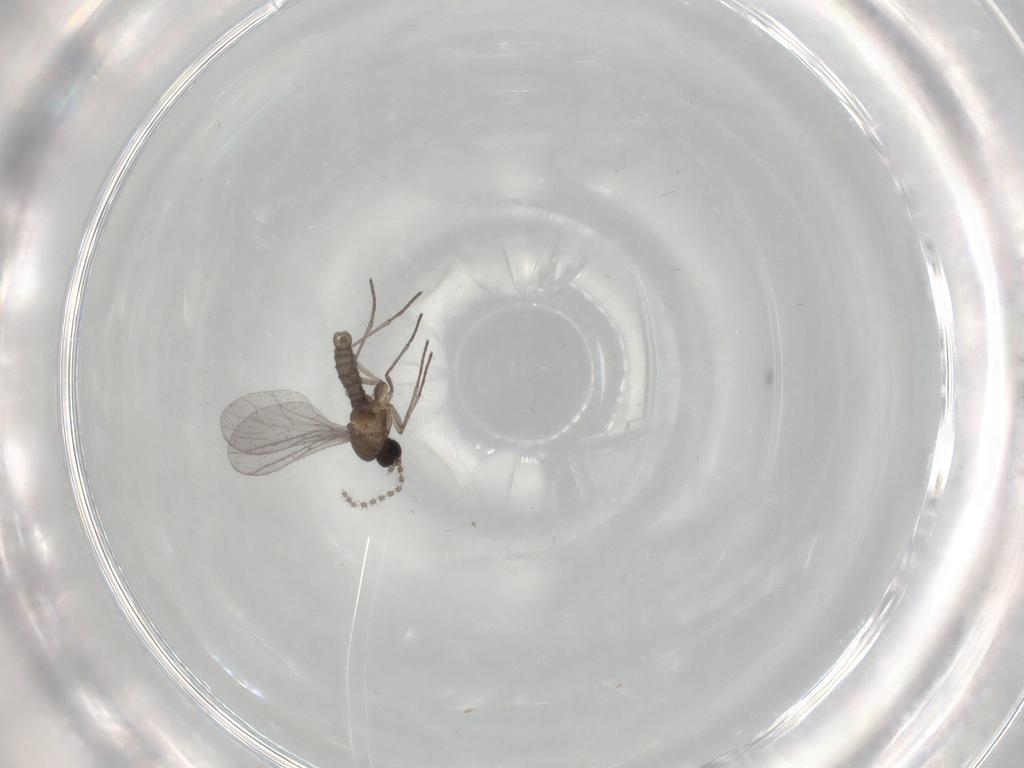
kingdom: Animalia
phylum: Arthropoda
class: Insecta
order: Diptera
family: Sciaridae
